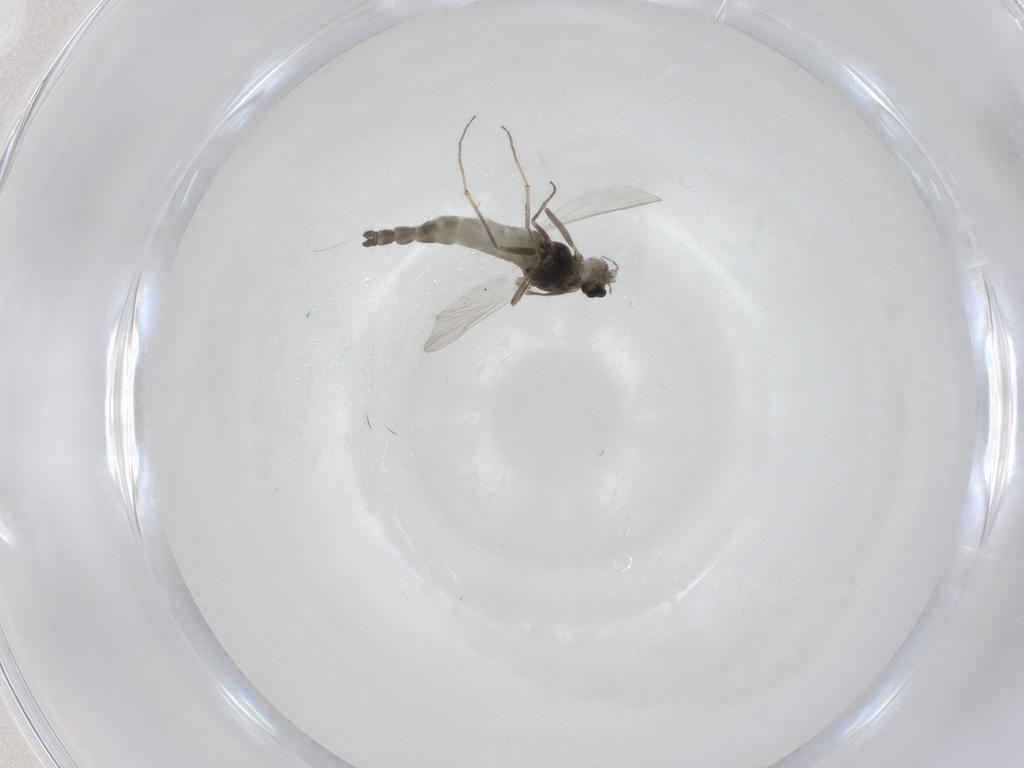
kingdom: Animalia
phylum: Arthropoda
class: Insecta
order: Diptera
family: Chironomidae
